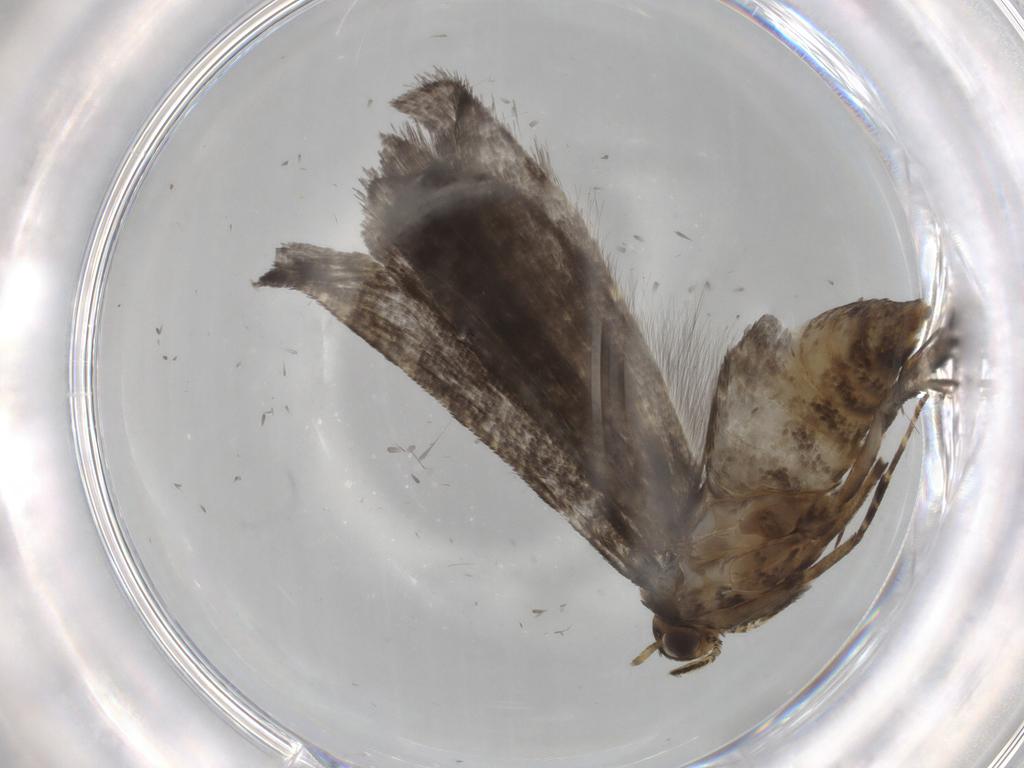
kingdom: Animalia
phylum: Arthropoda
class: Insecta
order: Lepidoptera
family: Crambidae
